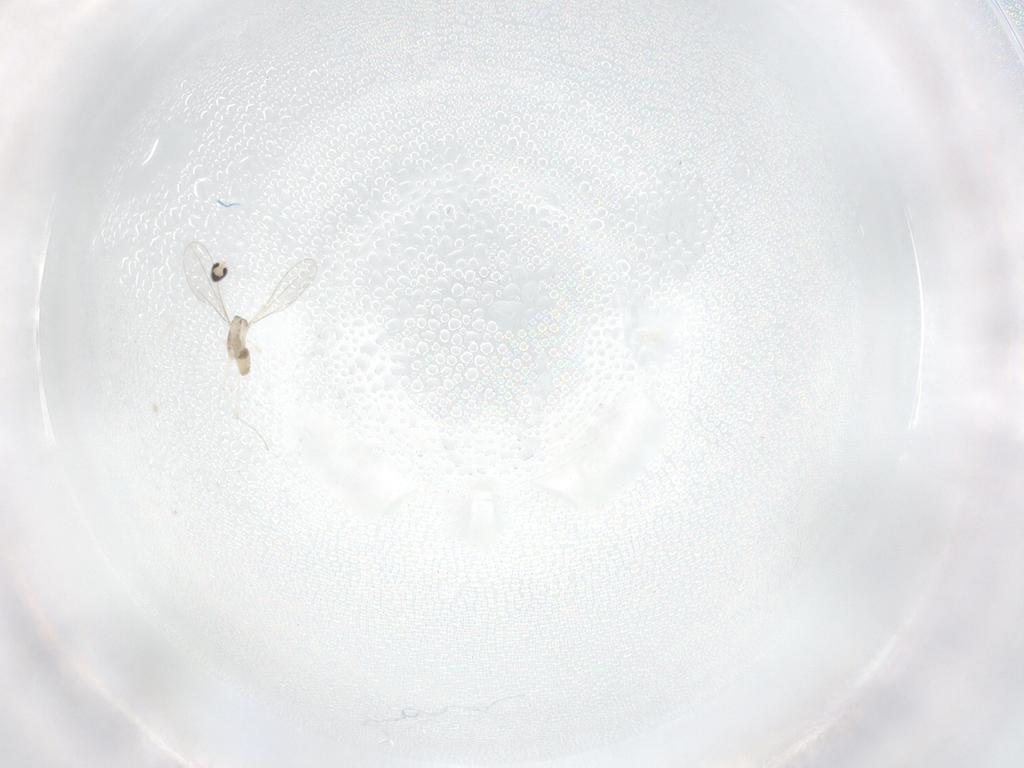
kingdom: Animalia
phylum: Arthropoda
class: Insecta
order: Diptera
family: Cecidomyiidae
